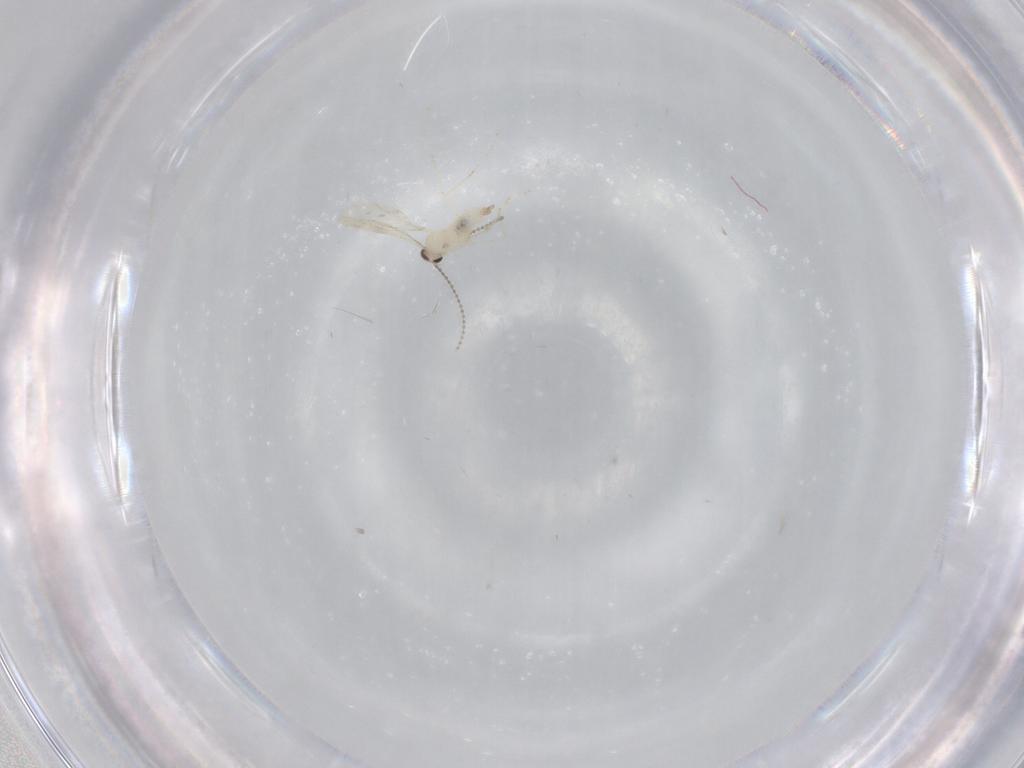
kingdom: Animalia
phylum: Arthropoda
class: Insecta
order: Diptera
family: Cecidomyiidae
